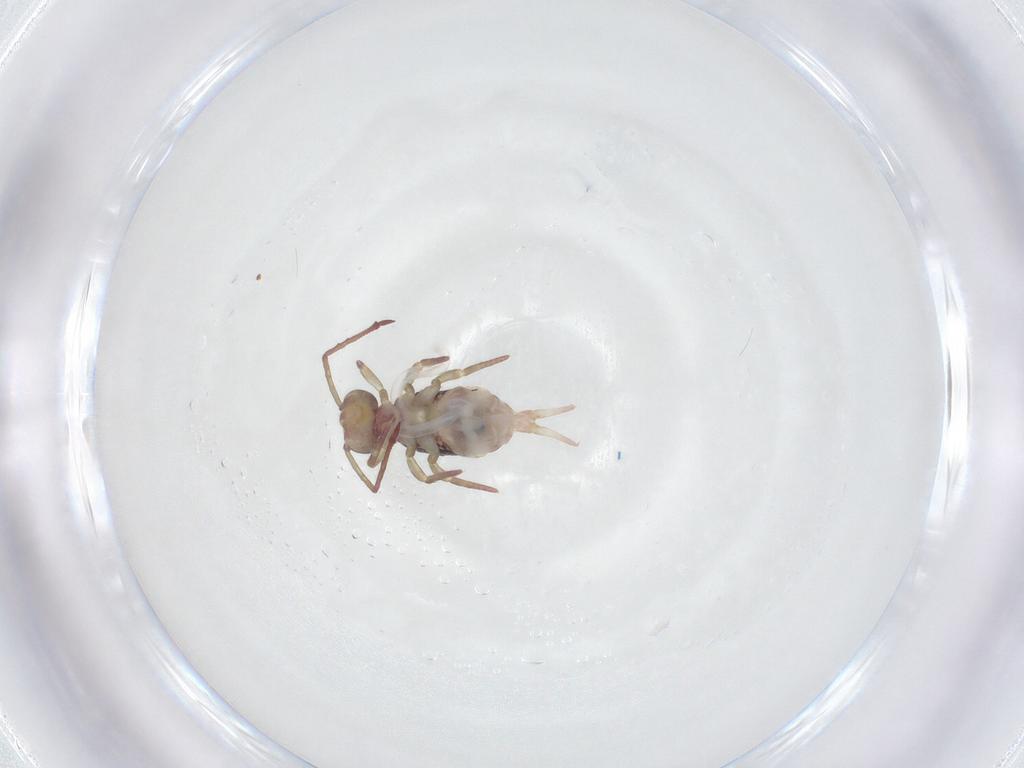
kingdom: Animalia
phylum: Arthropoda
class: Collembola
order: Symphypleona
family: Dicyrtomidae
